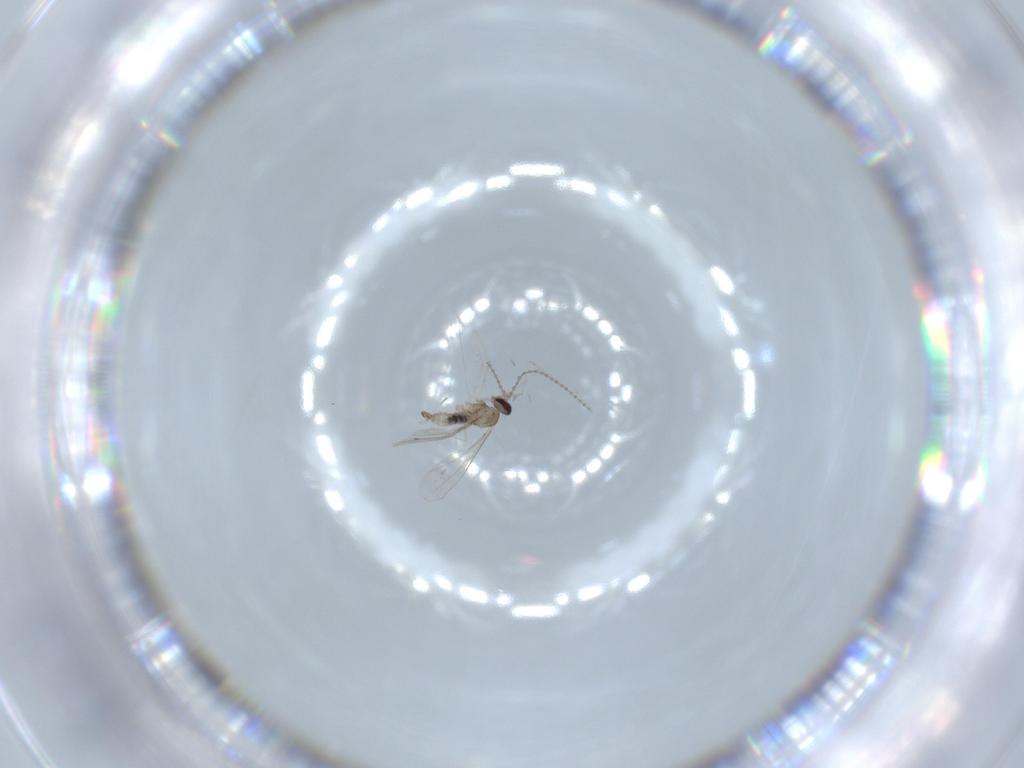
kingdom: Animalia
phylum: Arthropoda
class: Insecta
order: Diptera
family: Cecidomyiidae
